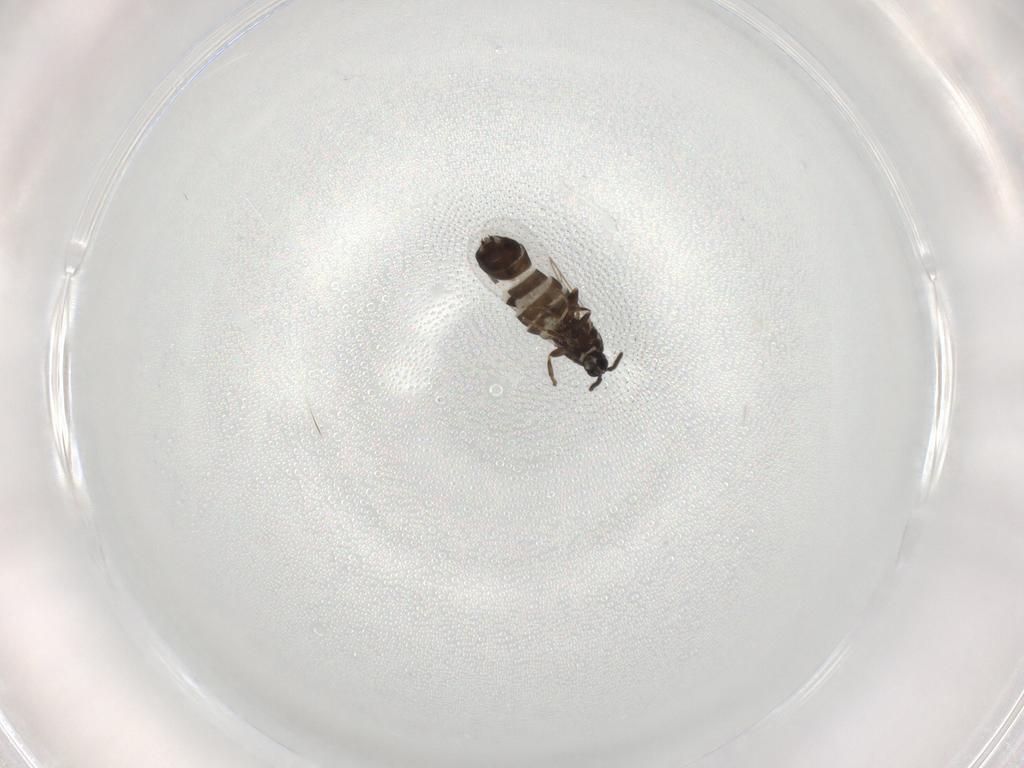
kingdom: Animalia
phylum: Arthropoda
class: Insecta
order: Diptera
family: Scatopsidae
